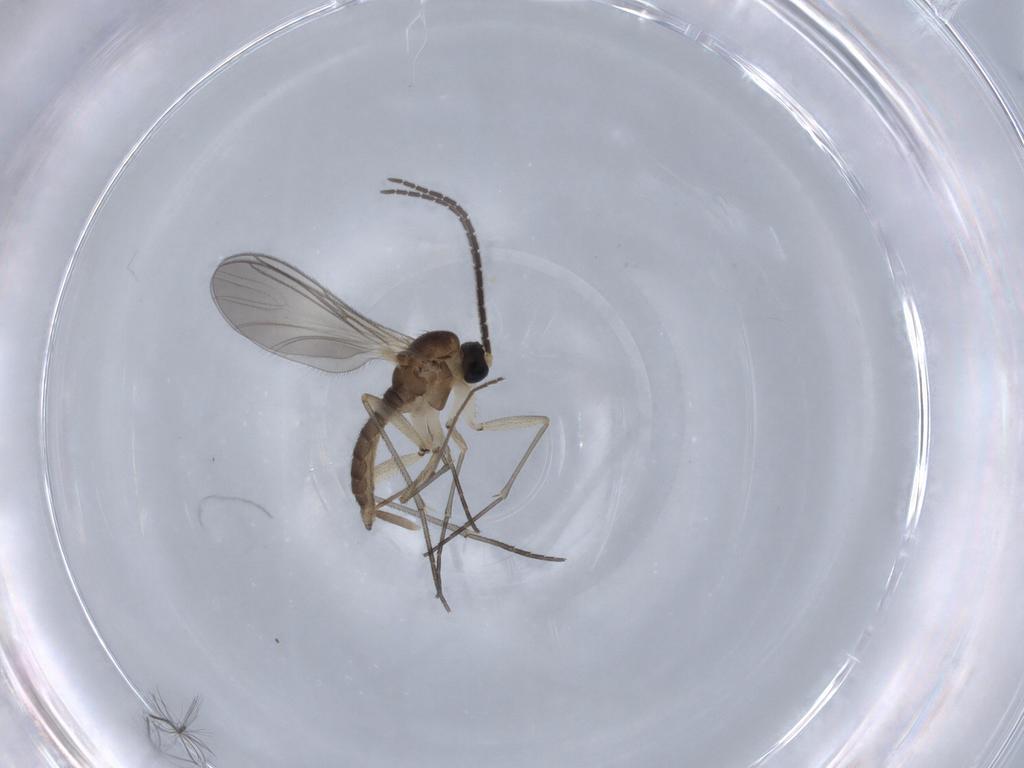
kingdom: Animalia
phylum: Arthropoda
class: Insecta
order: Diptera
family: Sciaridae
